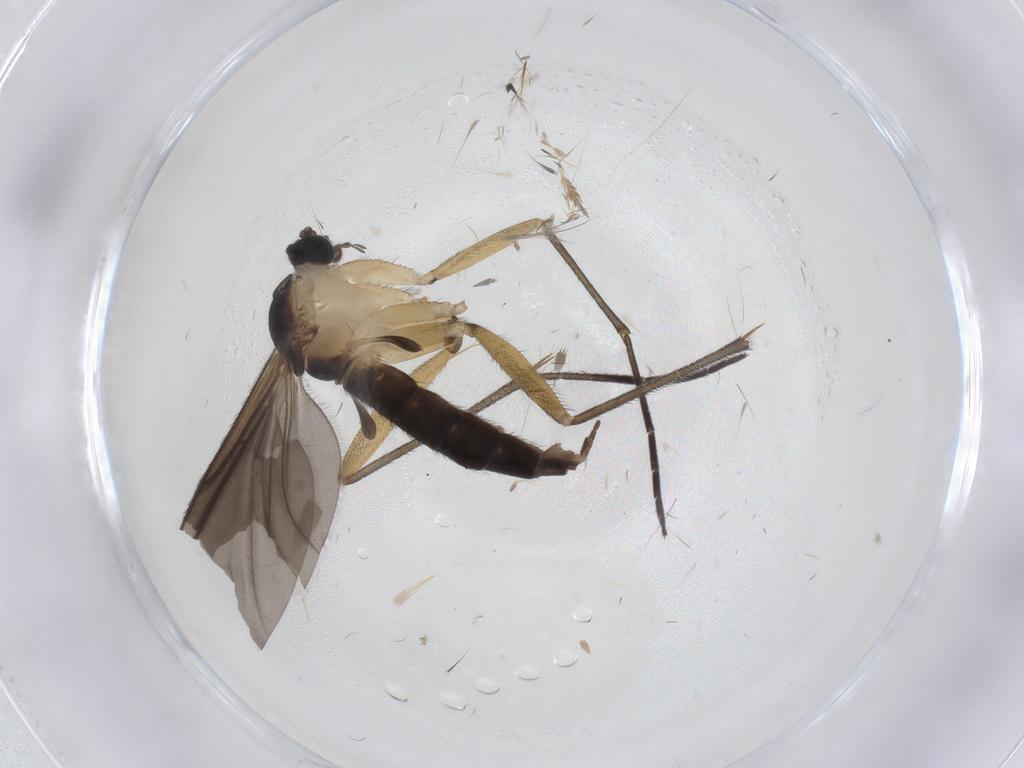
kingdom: Animalia
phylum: Arthropoda
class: Insecta
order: Diptera
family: Sciaridae
